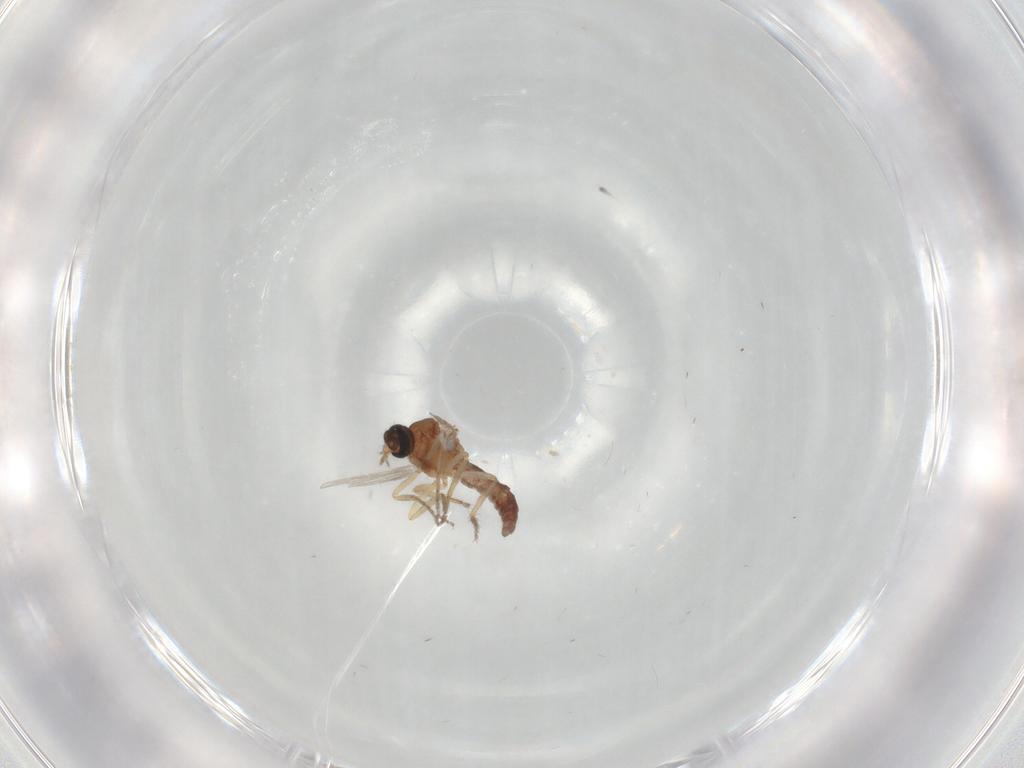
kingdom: Animalia
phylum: Arthropoda
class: Insecta
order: Diptera
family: Ceratopogonidae
